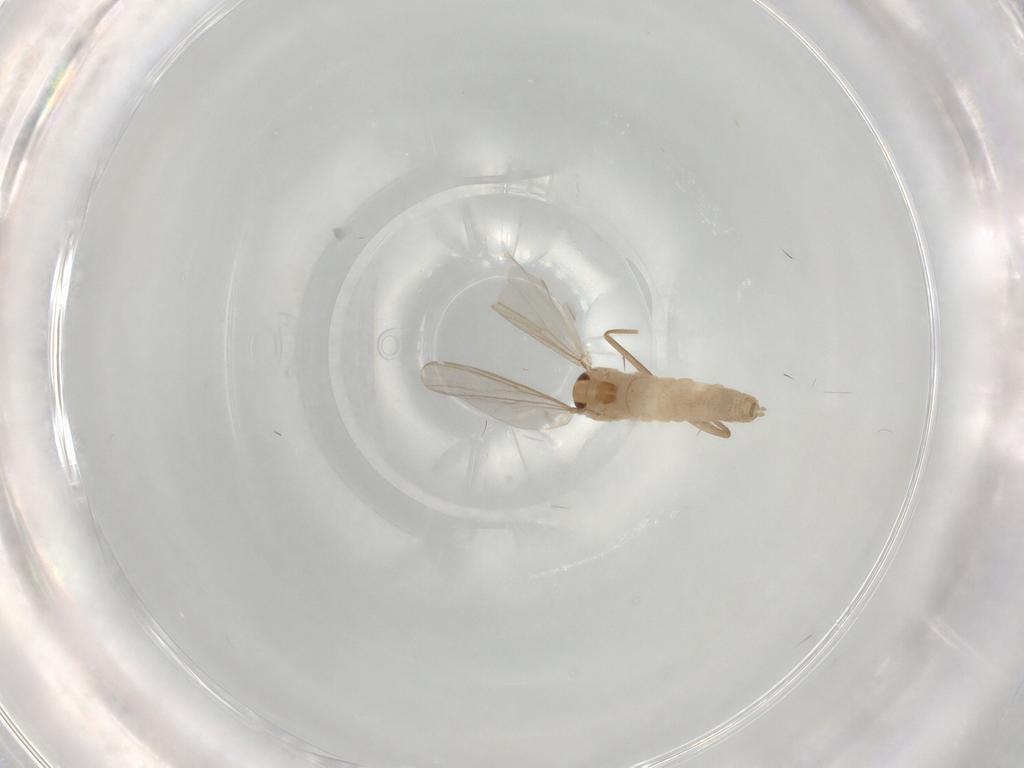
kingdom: Animalia
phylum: Arthropoda
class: Insecta
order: Diptera
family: Chironomidae
